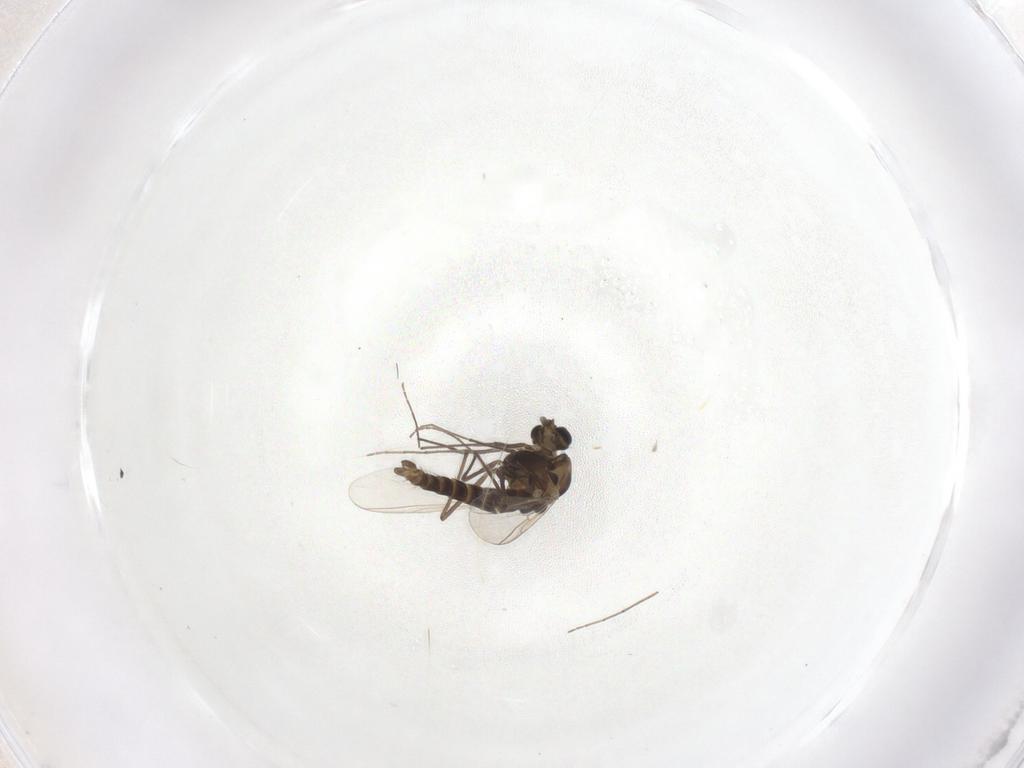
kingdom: Animalia
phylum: Arthropoda
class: Insecta
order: Diptera
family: Chironomidae
